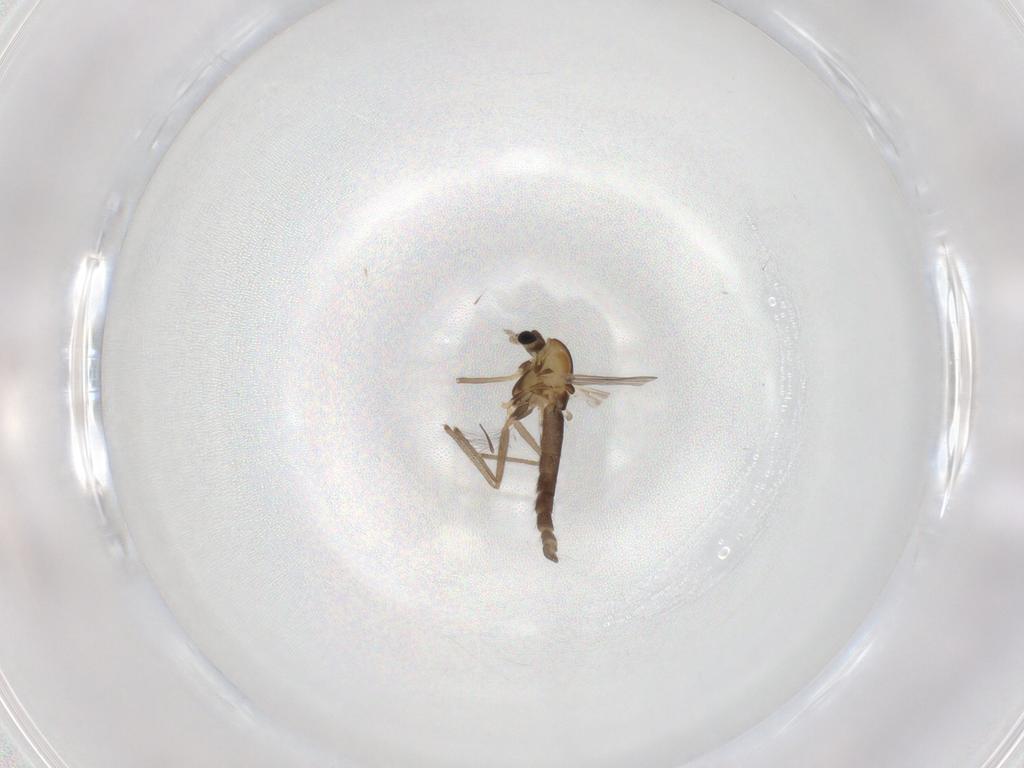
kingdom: Animalia
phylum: Arthropoda
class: Insecta
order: Diptera
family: Chironomidae
